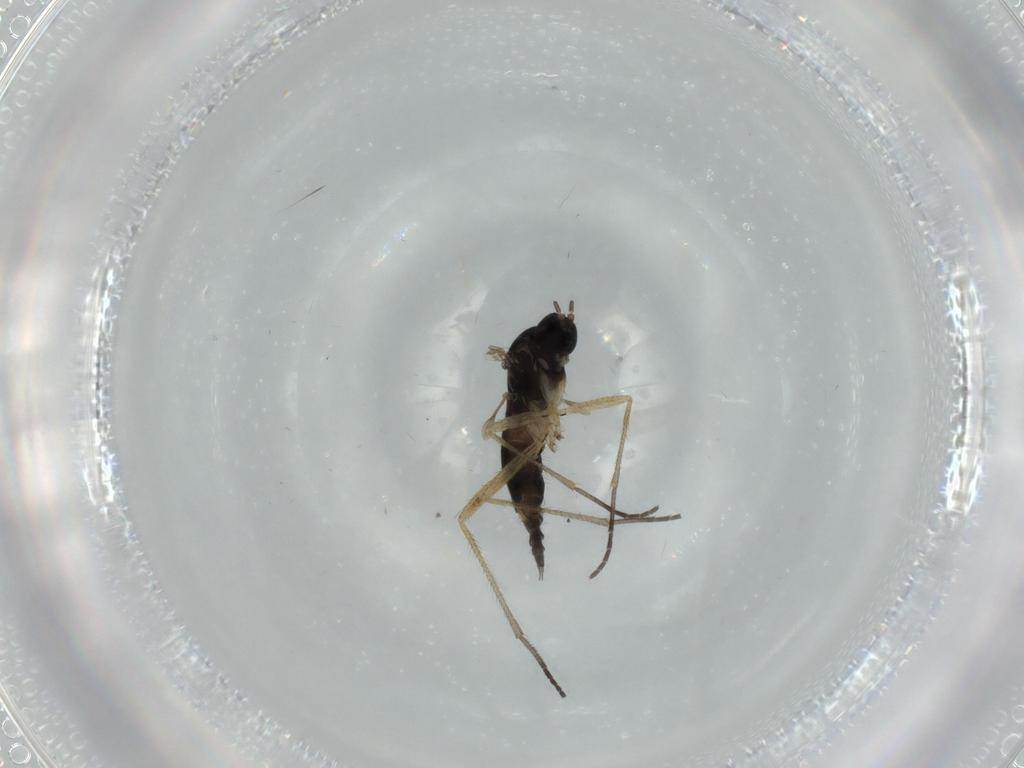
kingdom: Animalia
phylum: Arthropoda
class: Insecta
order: Diptera
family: Sciaridae
